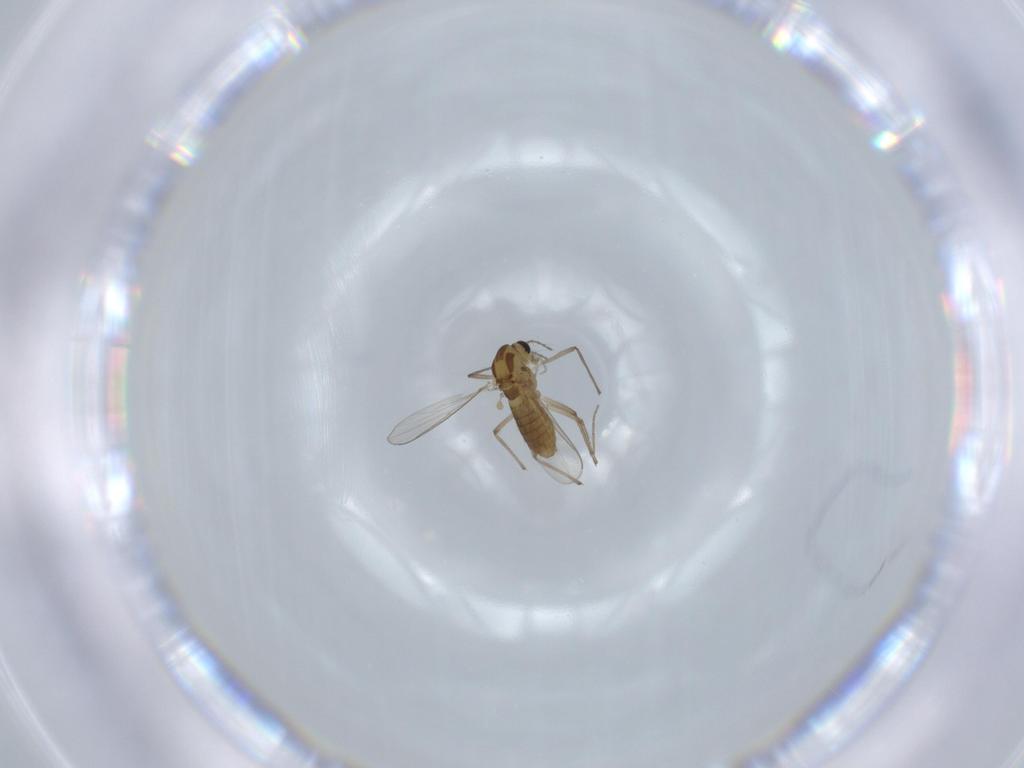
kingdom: Animalia
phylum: Arthropoda
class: Insecta
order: Diptera
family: Chironomidae
